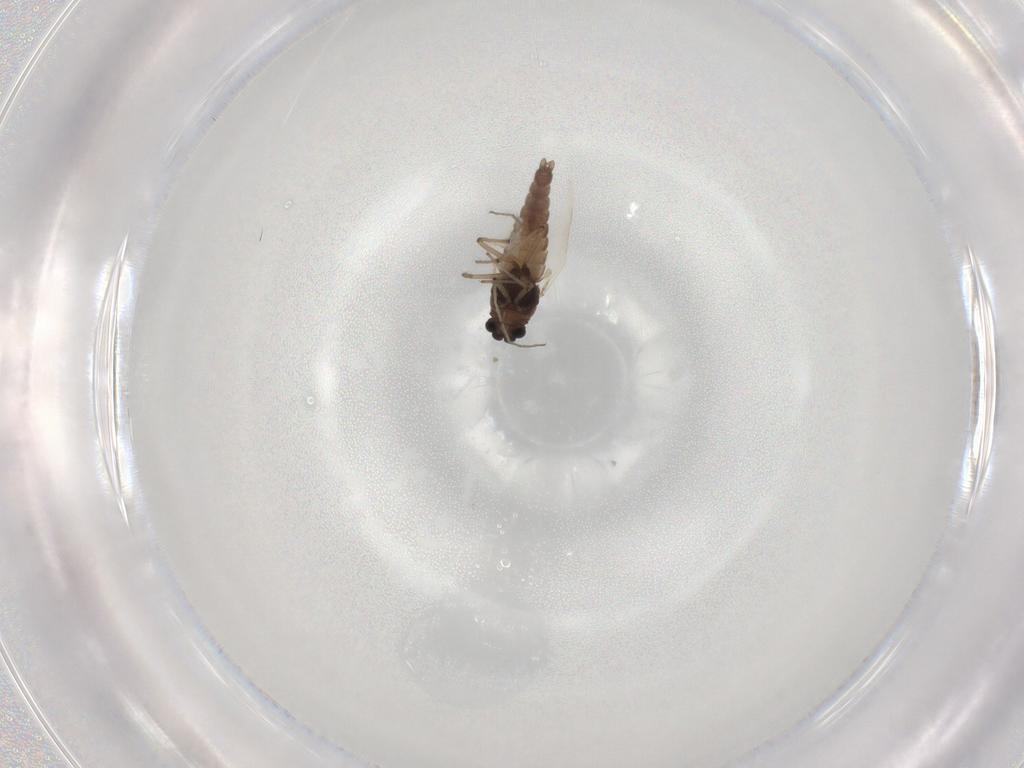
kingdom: Animalia
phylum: Arthropoda
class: Insecta
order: Diptera
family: Chironomidae
